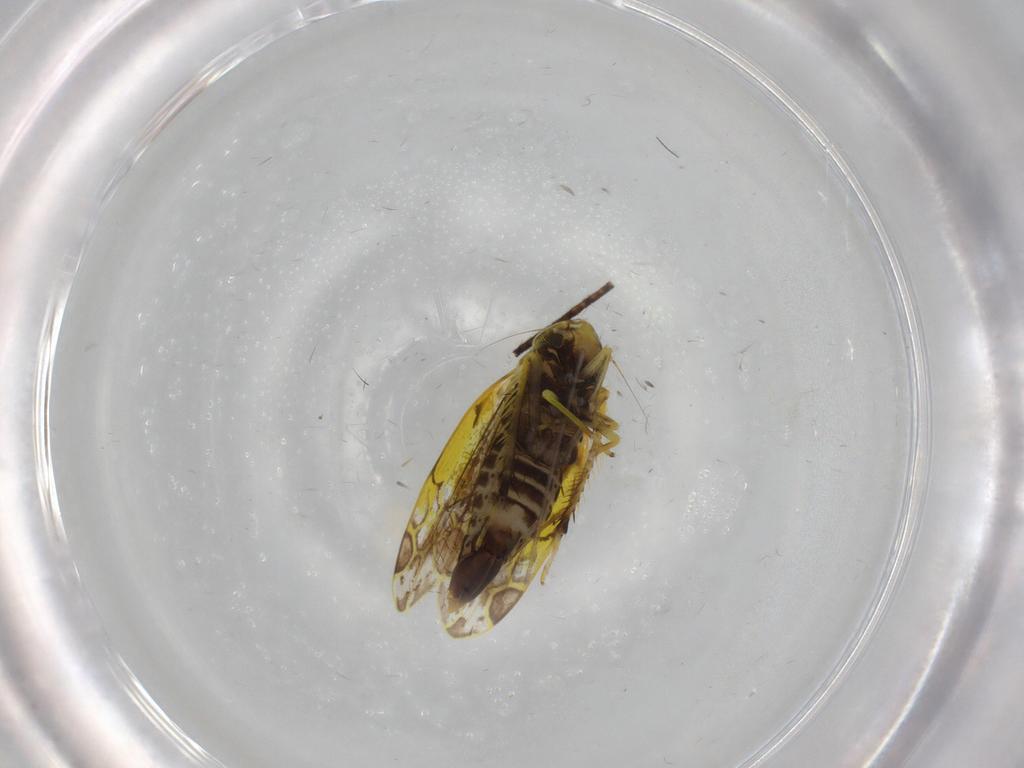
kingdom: Animalia
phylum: Arthropoda
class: Insecta
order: Hemiptera
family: Cicadellidae
